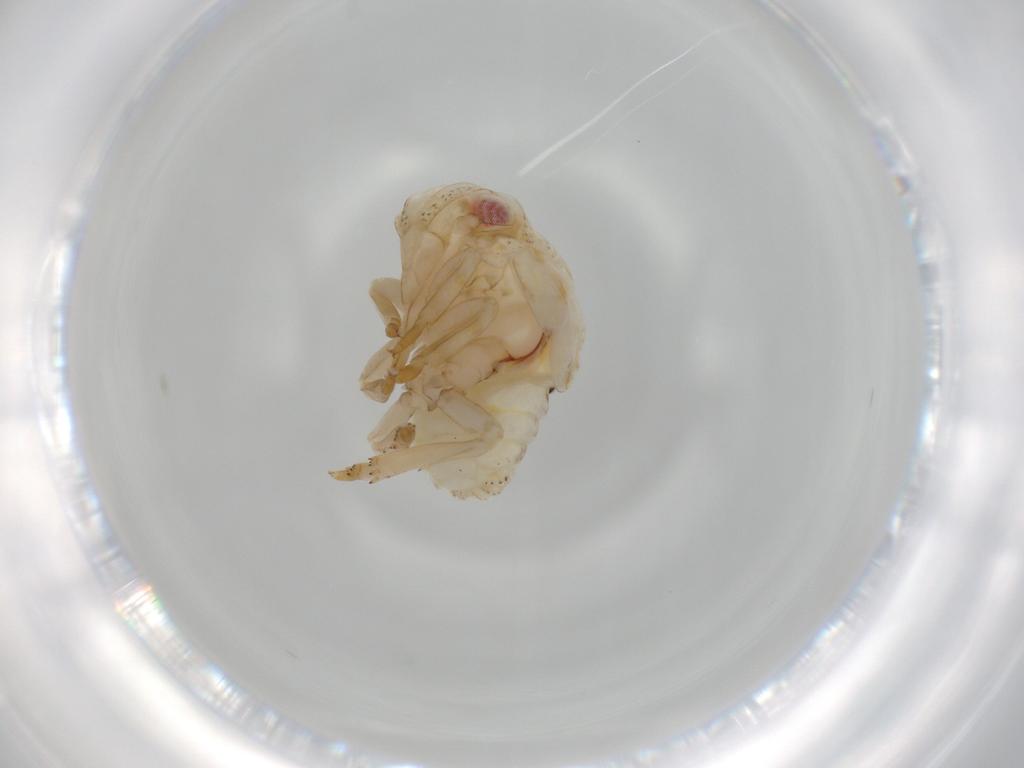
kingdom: Animalia
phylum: Arthropoda
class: Insecta
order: Hemiptera
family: Acanaloniidae
